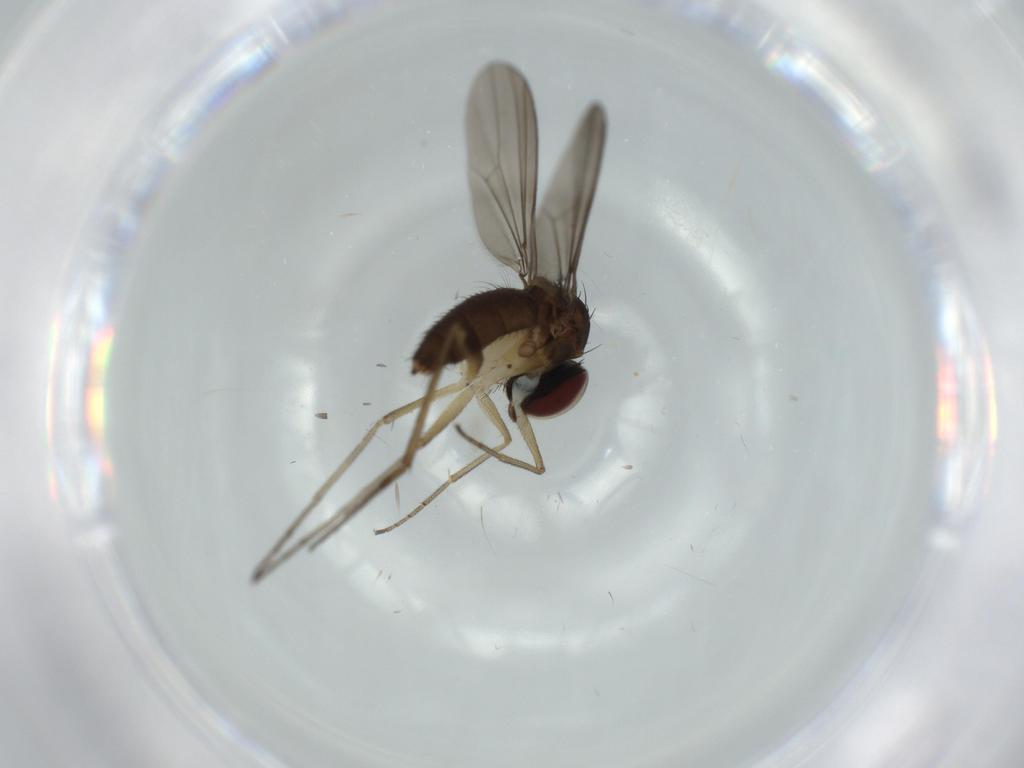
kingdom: Animalia
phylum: Arthropoda
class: Insecta
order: Diptera
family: Dolichopodidae
